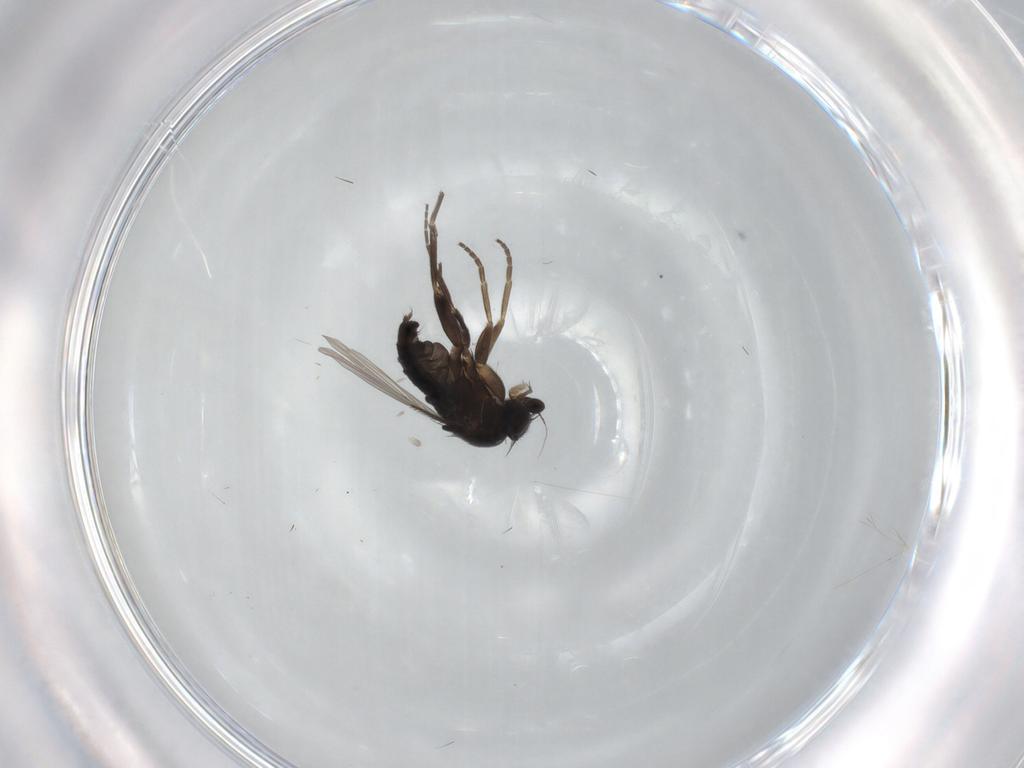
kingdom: Animalia
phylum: Arthropoda
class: Insecta
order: Diptera
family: Phoridae
